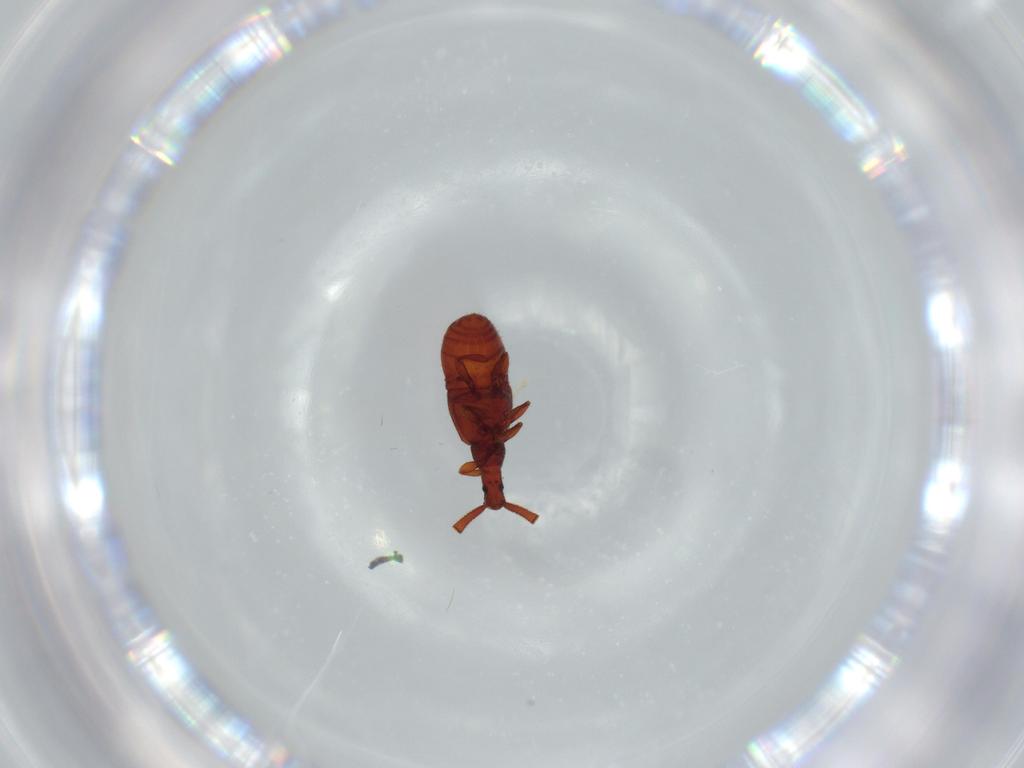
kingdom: Animalia
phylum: Arthropoda
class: Insecta
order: Coleoptera
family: Staphylinidae
